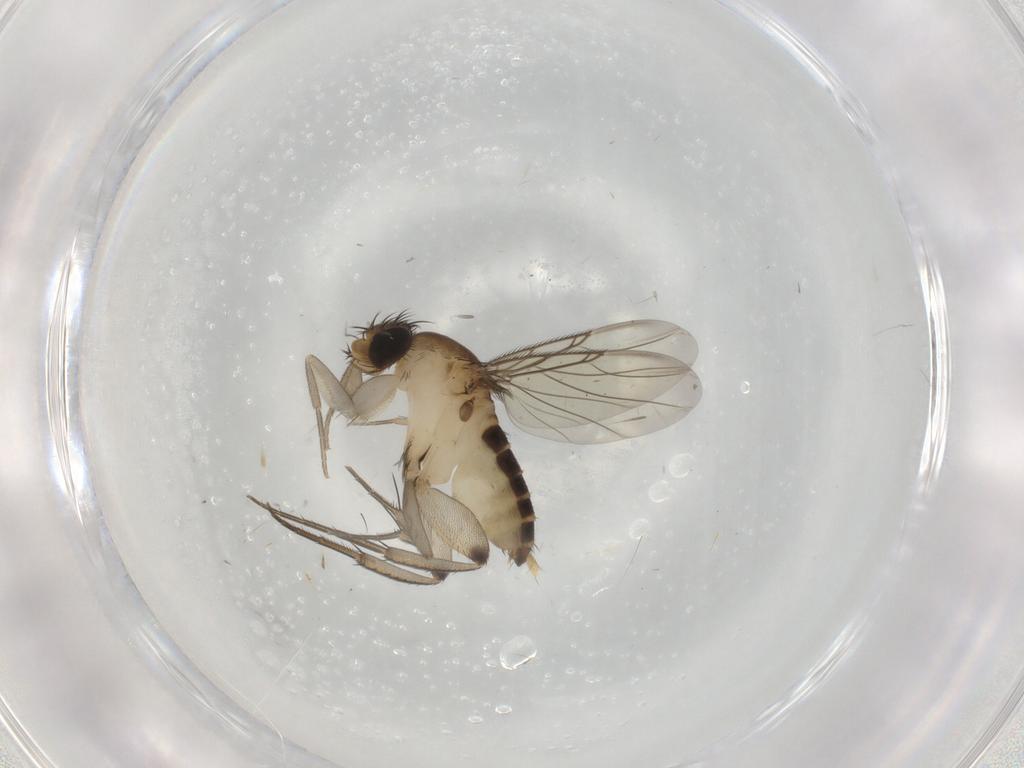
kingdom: Animalia
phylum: Arthropoda
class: Insecta
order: Diptera
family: Phoridae
